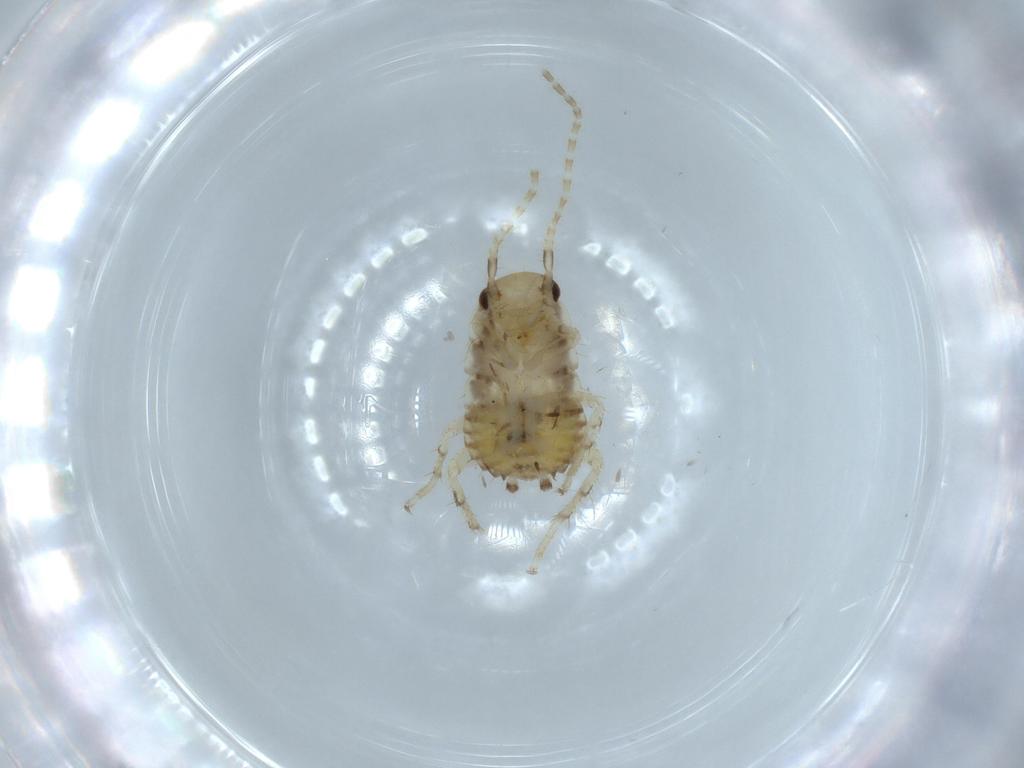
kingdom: Animalia
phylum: Arthropoda
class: Insecta
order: Blattodea
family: Ectobiidae
